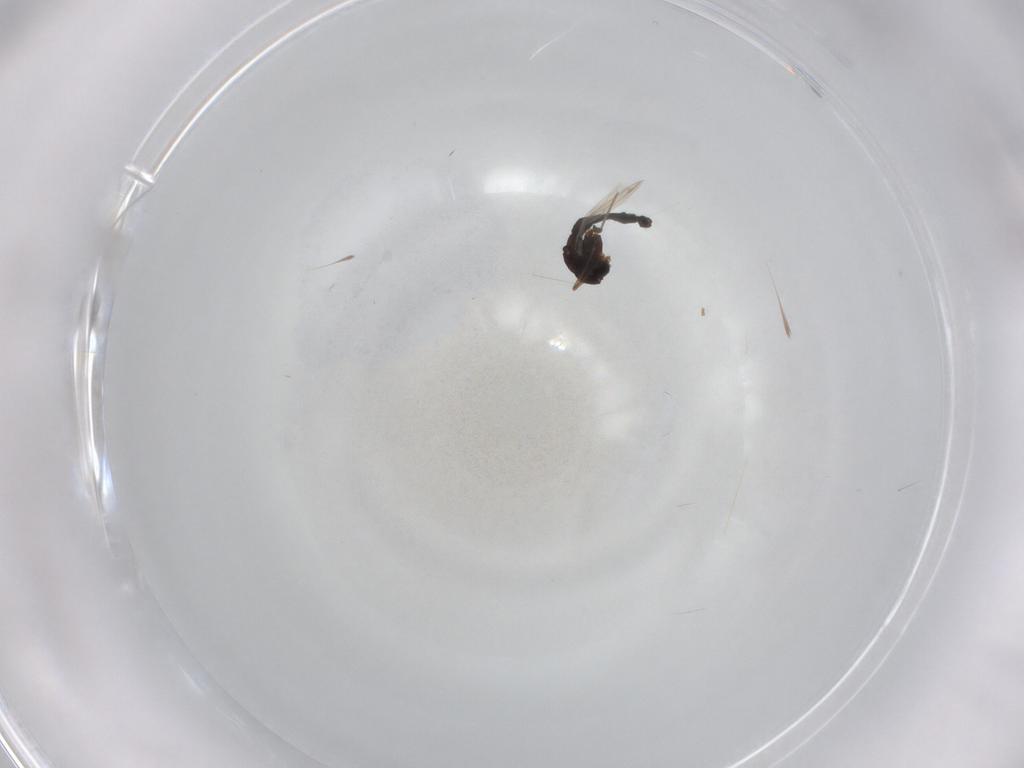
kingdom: Animalia
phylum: Arthropoda
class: Insecta
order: Diptera
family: Chironomidae
